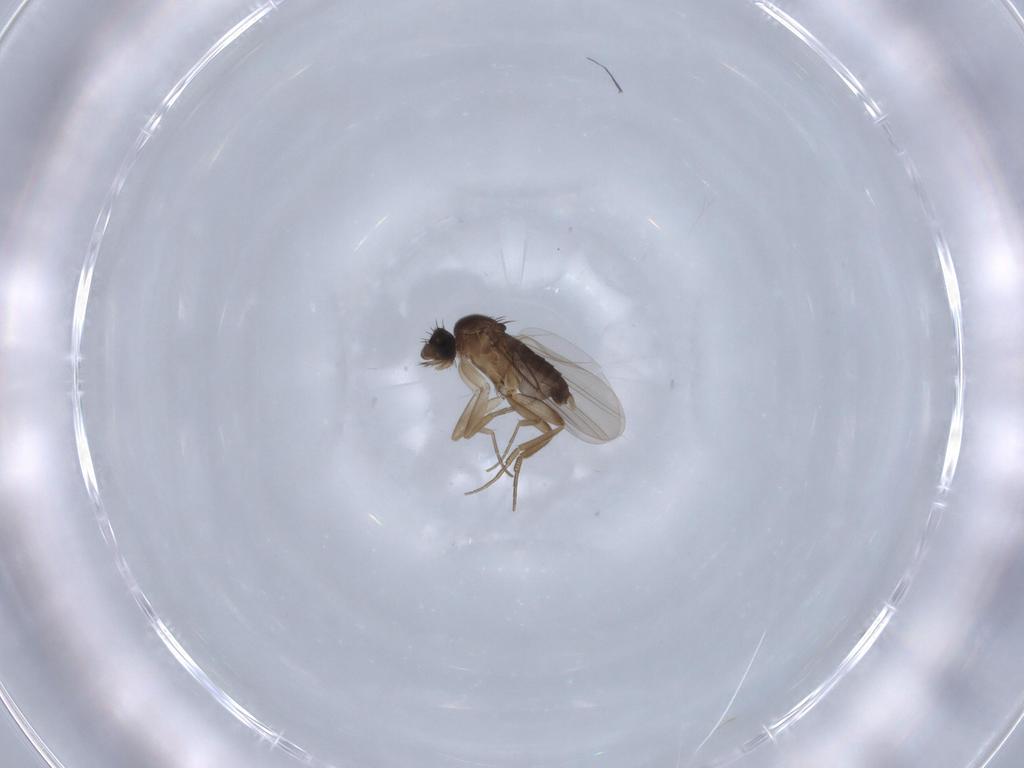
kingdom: Animalia
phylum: Arthropoda
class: Insecta
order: Diptera
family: Phoridae
